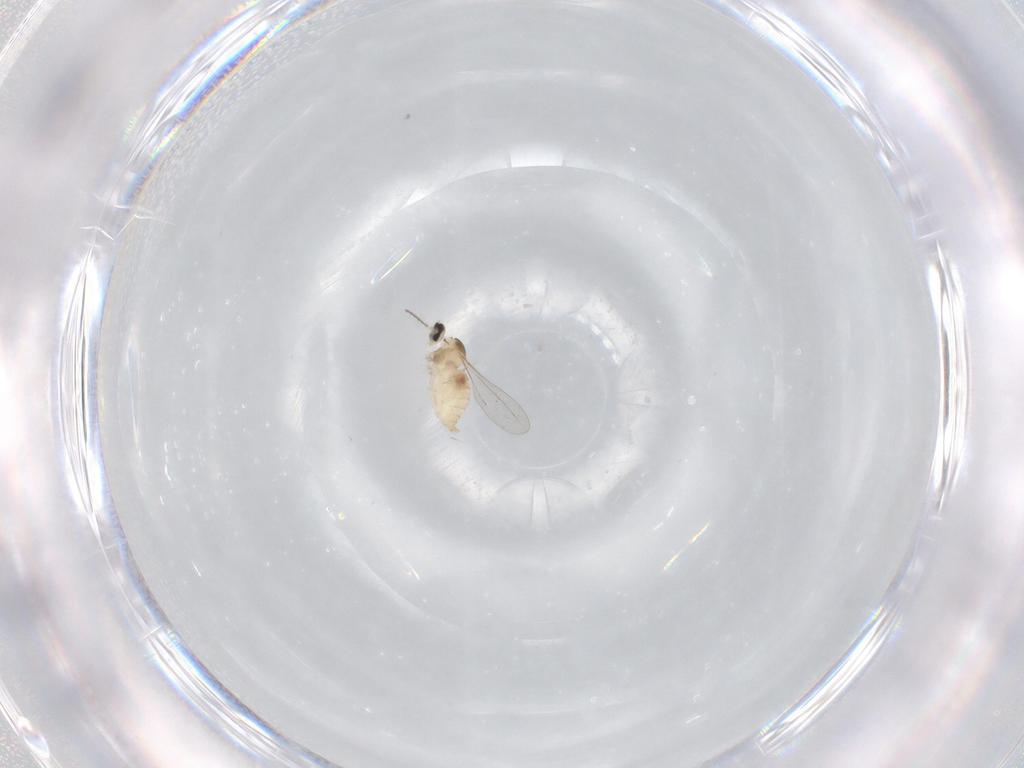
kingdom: Animalia
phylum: Arthropoda
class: Insecta
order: Diptera
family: Cecidomyiidae
